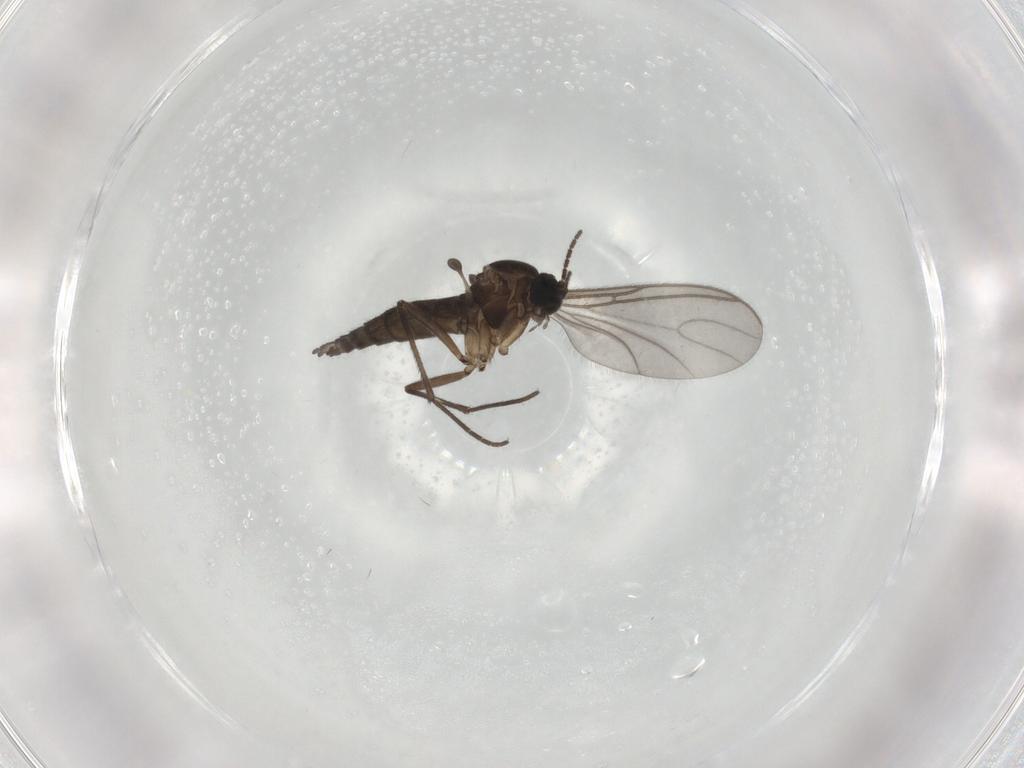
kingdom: Animalia
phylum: Arthropoda
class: Insecta
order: Diptera
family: Sciaridae
